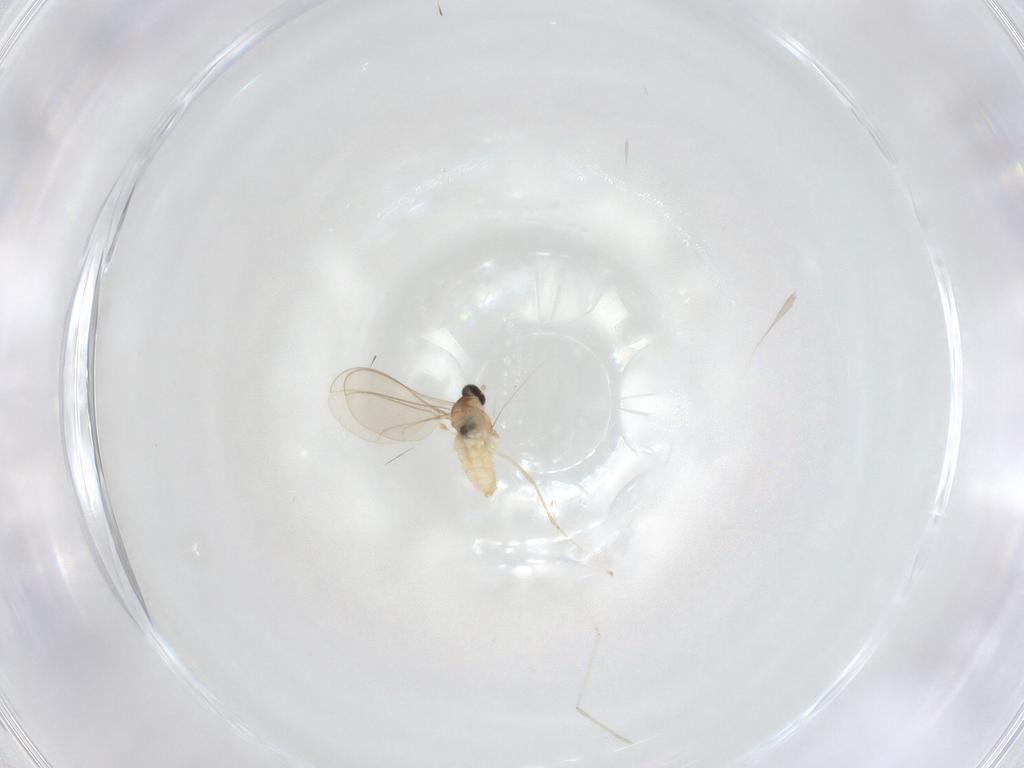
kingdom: Animalia
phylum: Arthropoda
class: Insecta
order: Diptera
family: Cecidomyiidae
